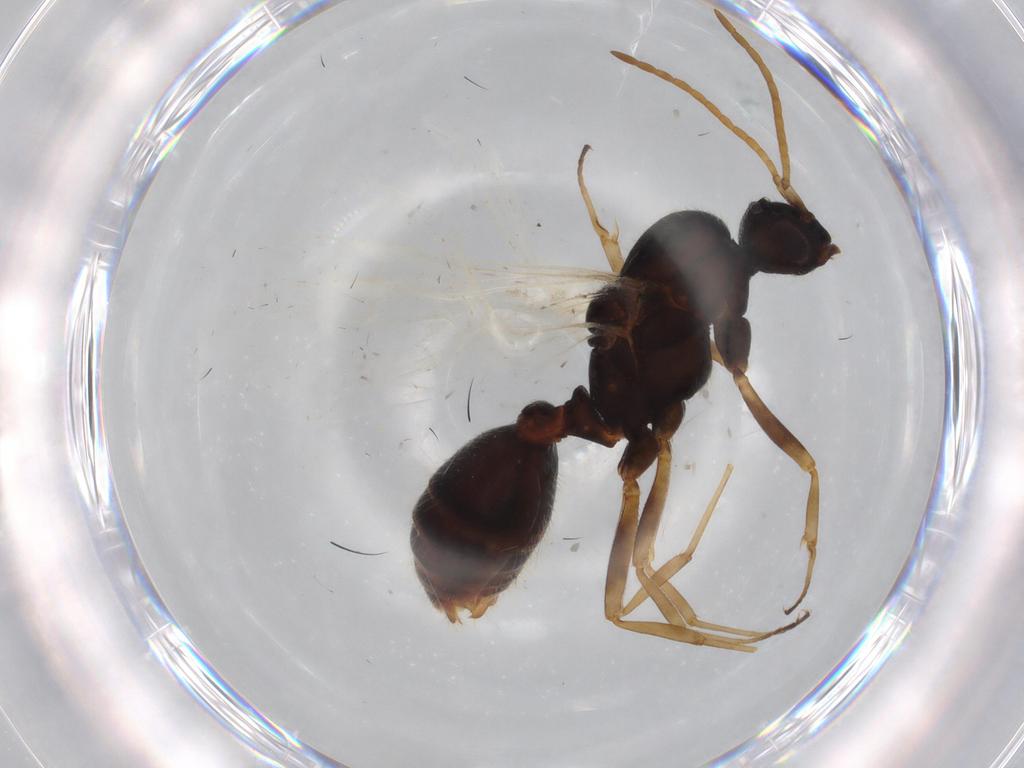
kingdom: Animalia
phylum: Arthropoda
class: Insecta
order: Hymenoptera
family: Formicidae
